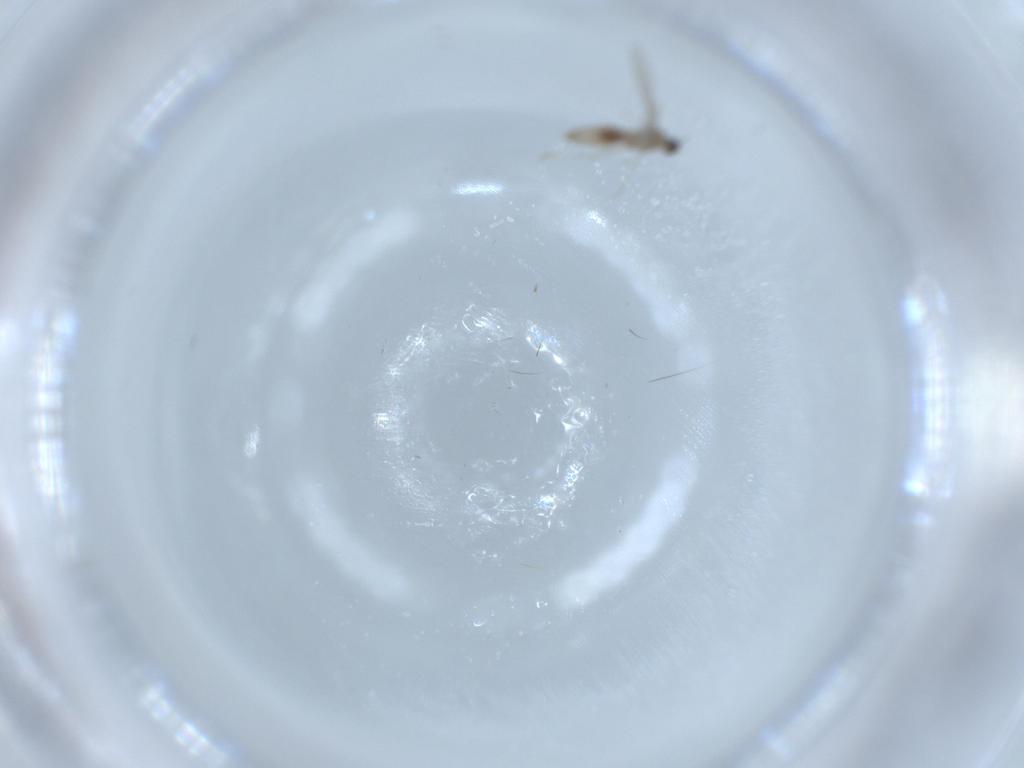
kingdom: Animalia
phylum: Arthropoda
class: Insecta
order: Diptera
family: Cecidomyiidae
